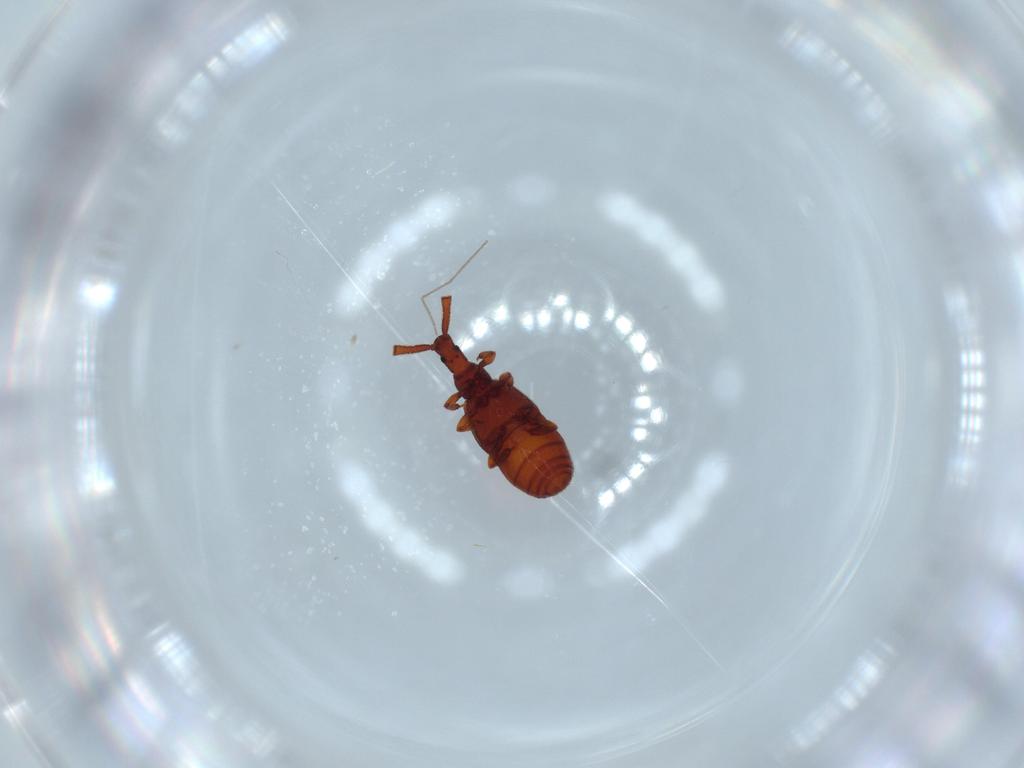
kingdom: Animalia
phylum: Arthropoda
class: Insecta
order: Coleoptera
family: Staphylinidae
